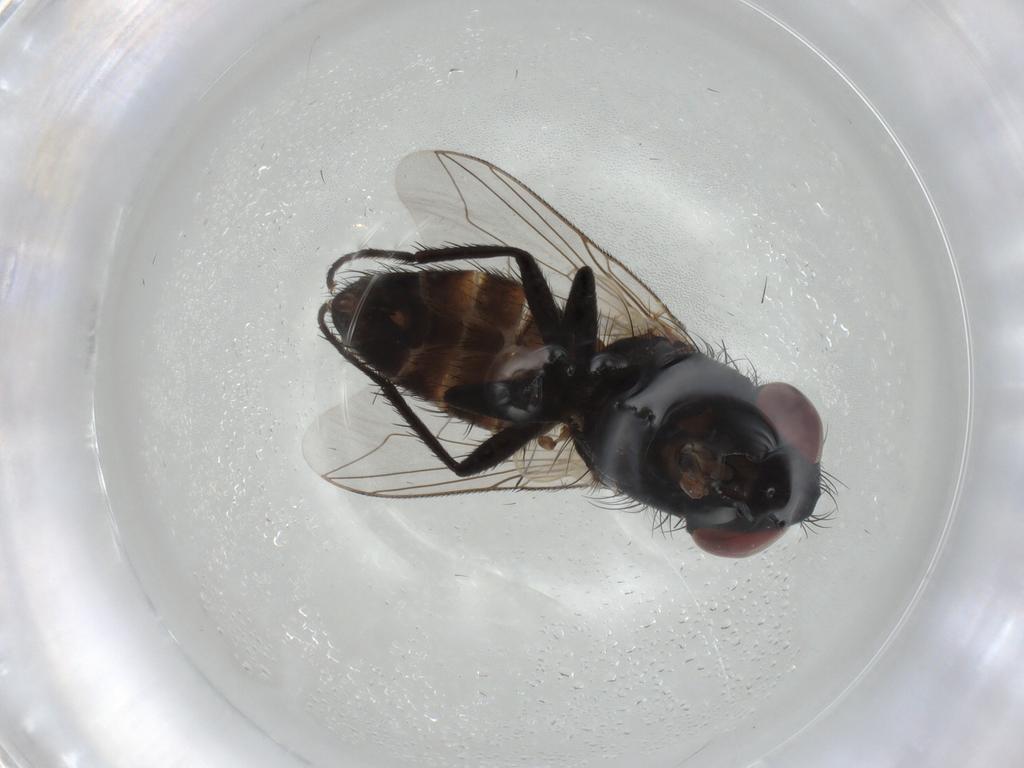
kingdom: Animalia
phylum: Arthropoda
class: Insecta
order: Diptera
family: Sarcophagidae
